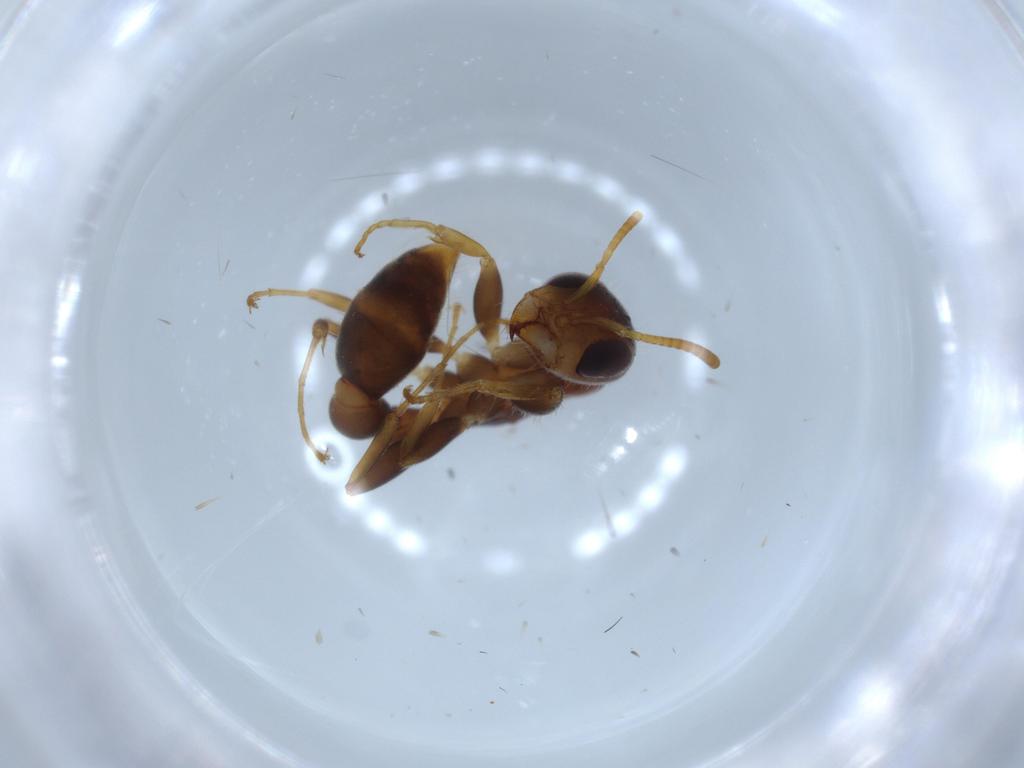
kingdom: Animalia
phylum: Arthropoda
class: Insecta
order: Hymenoptera
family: Formicidae
